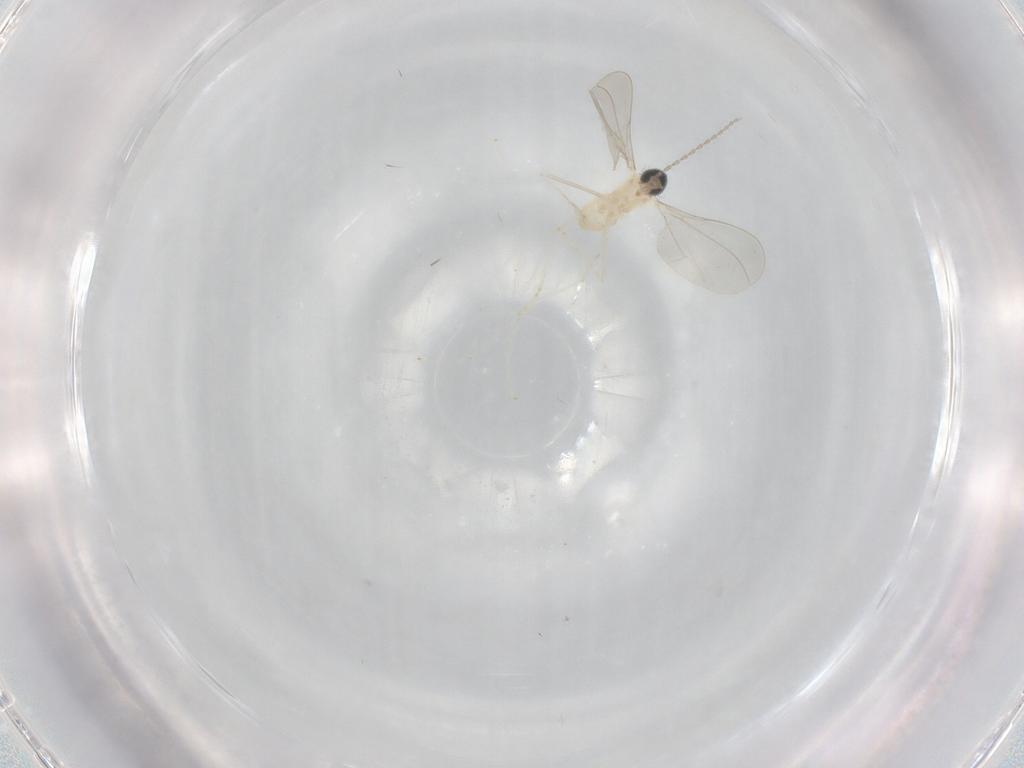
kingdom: Animalia
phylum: Arthropoda
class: Insecta
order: Diptera
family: Cecidomyiidae
